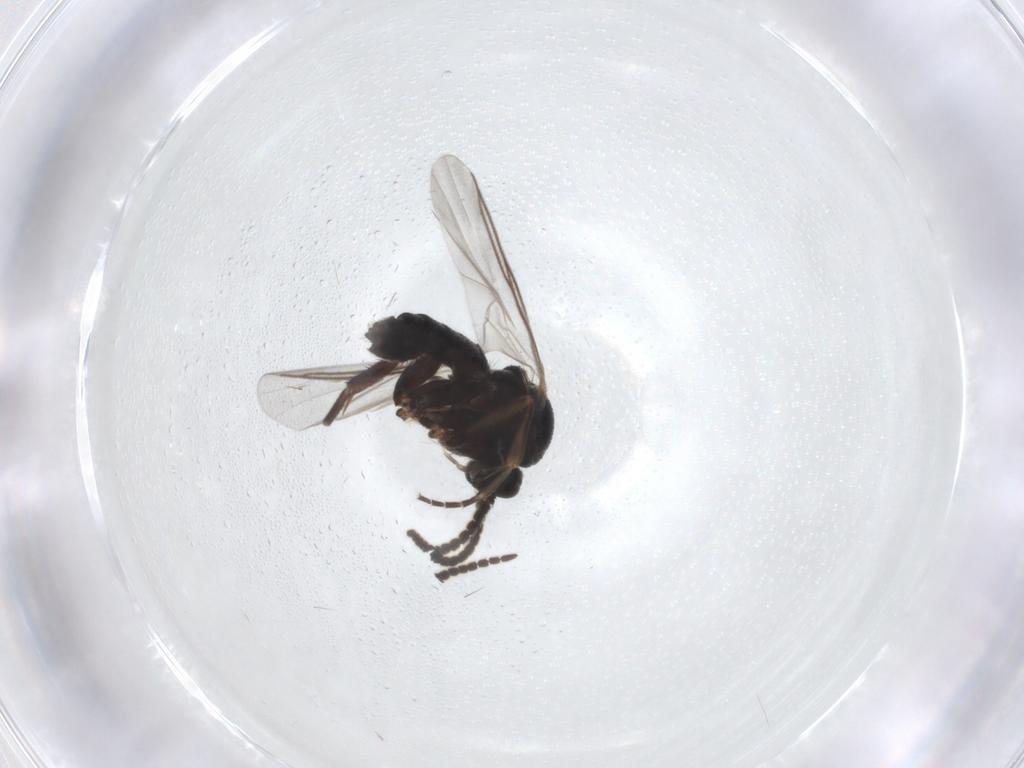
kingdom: Animalia
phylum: Arthropoda
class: Insecta
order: Diptera
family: Mycetophilidae
